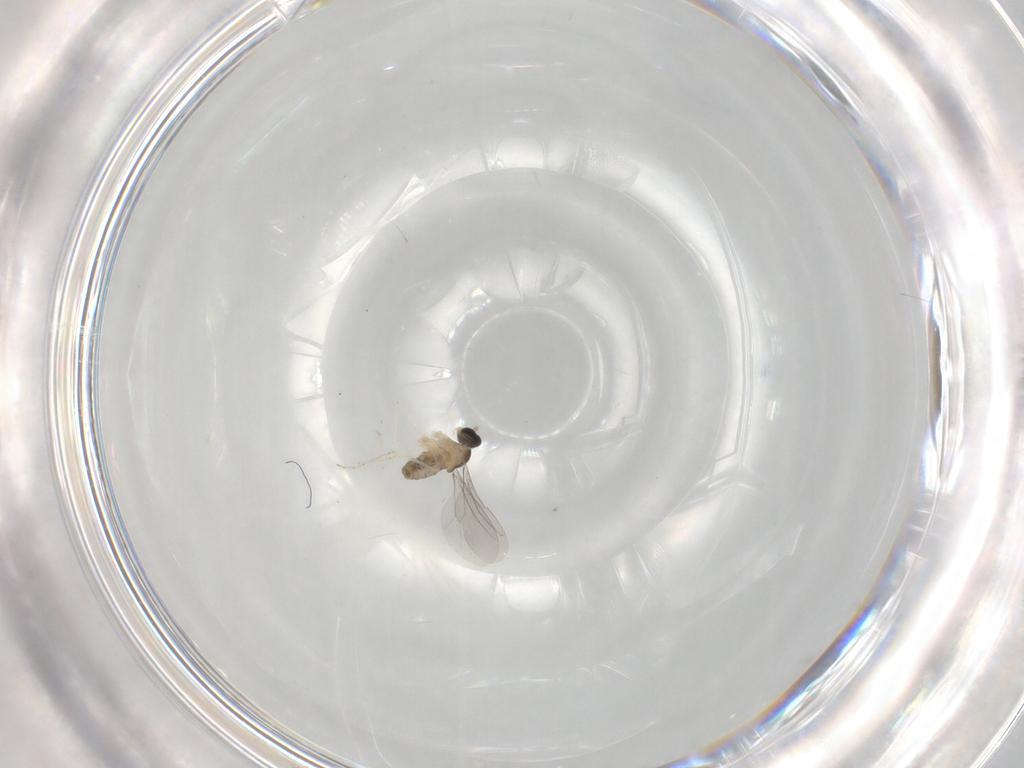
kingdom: Animalia
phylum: Arthropoda
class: Insecta
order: Diptera
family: Cecidomyiidae
